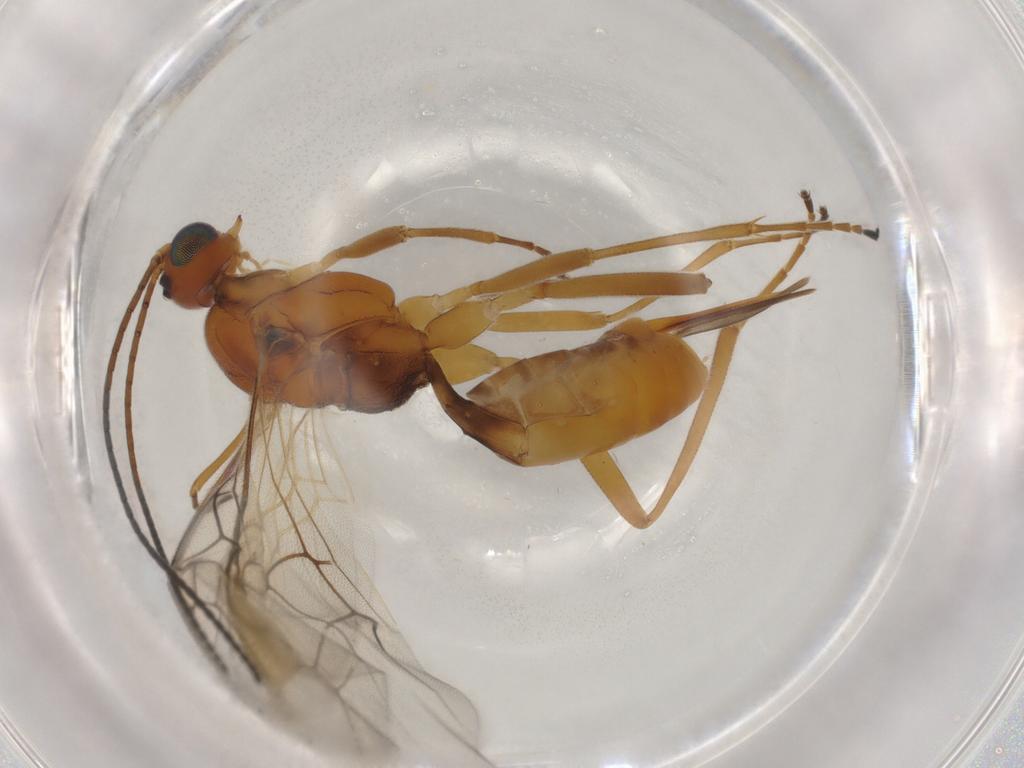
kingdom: Animalia
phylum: Arthropoda
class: Insecta
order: Hymenoptera
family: Braconidae
